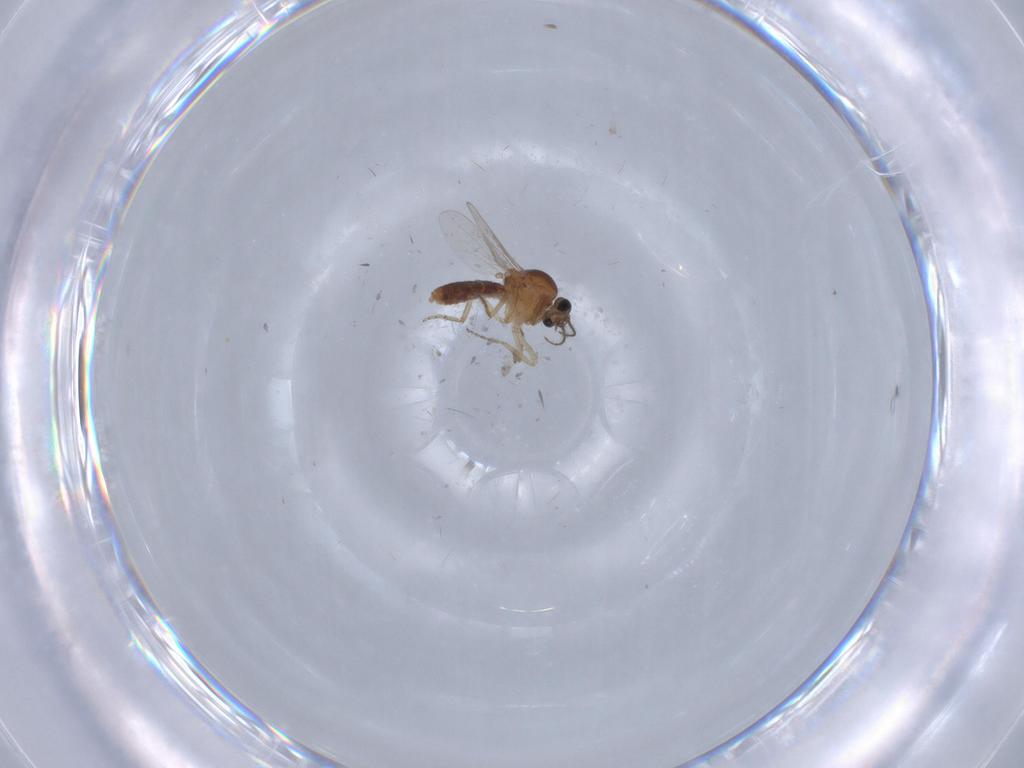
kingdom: Animalia
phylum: Arthropoda
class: Insecta
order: Diptera
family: Ceratopogonidae
